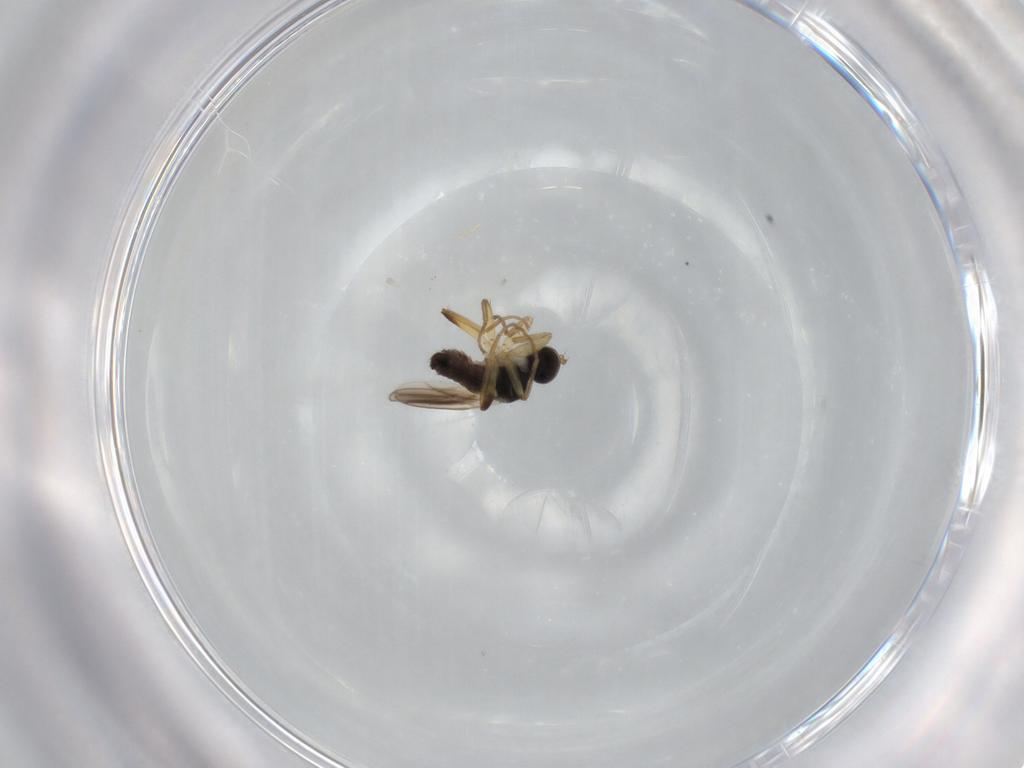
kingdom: Animalia
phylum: Arthropoda
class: Insecta
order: Diptera
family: Hybotidae
